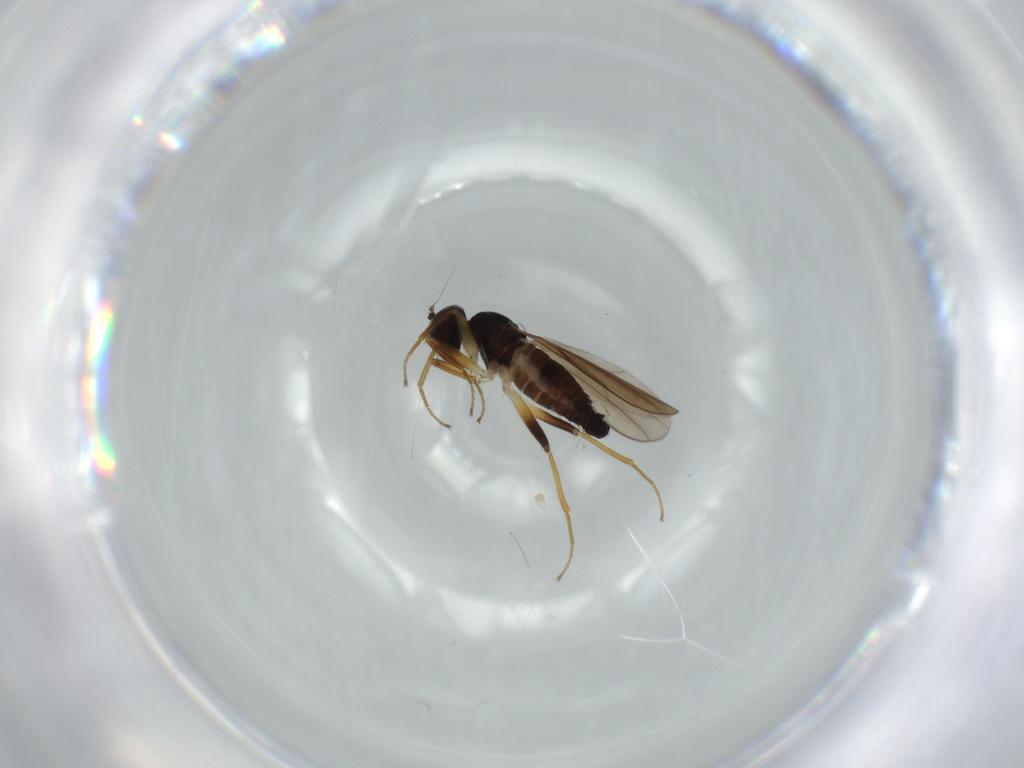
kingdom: Animalia
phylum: Arthropoda
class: Insecta
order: Diptera
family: Hybotidae
